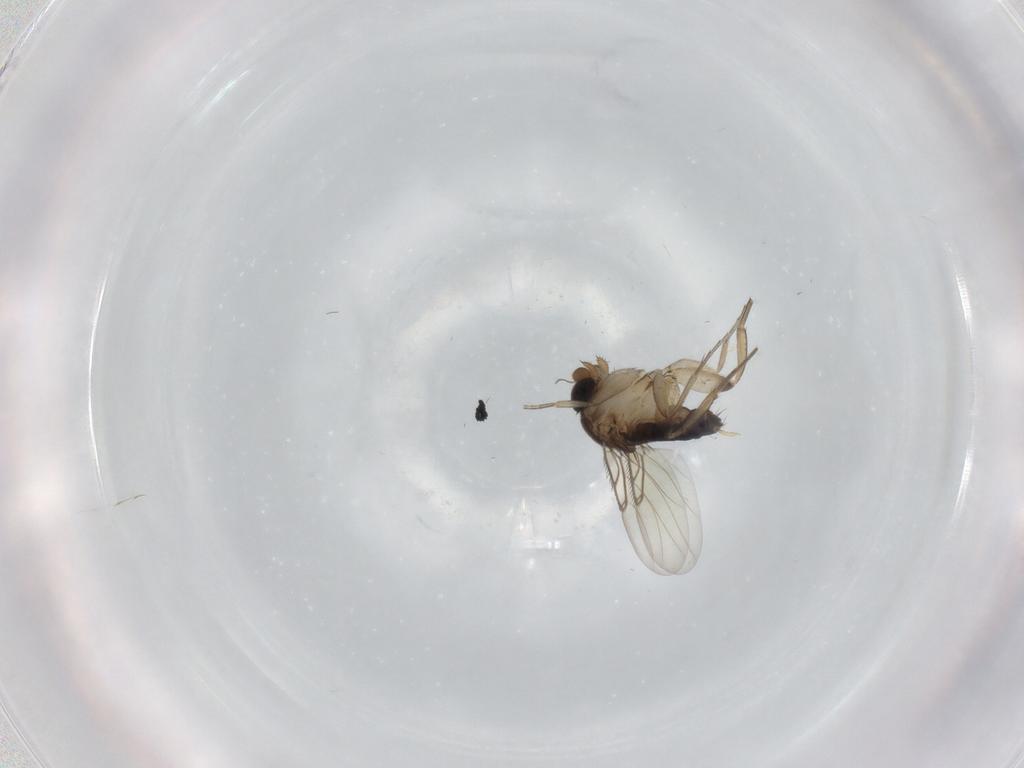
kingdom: Animalia
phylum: Arthropoda
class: Insecta
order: Diptera
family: Phoridae
